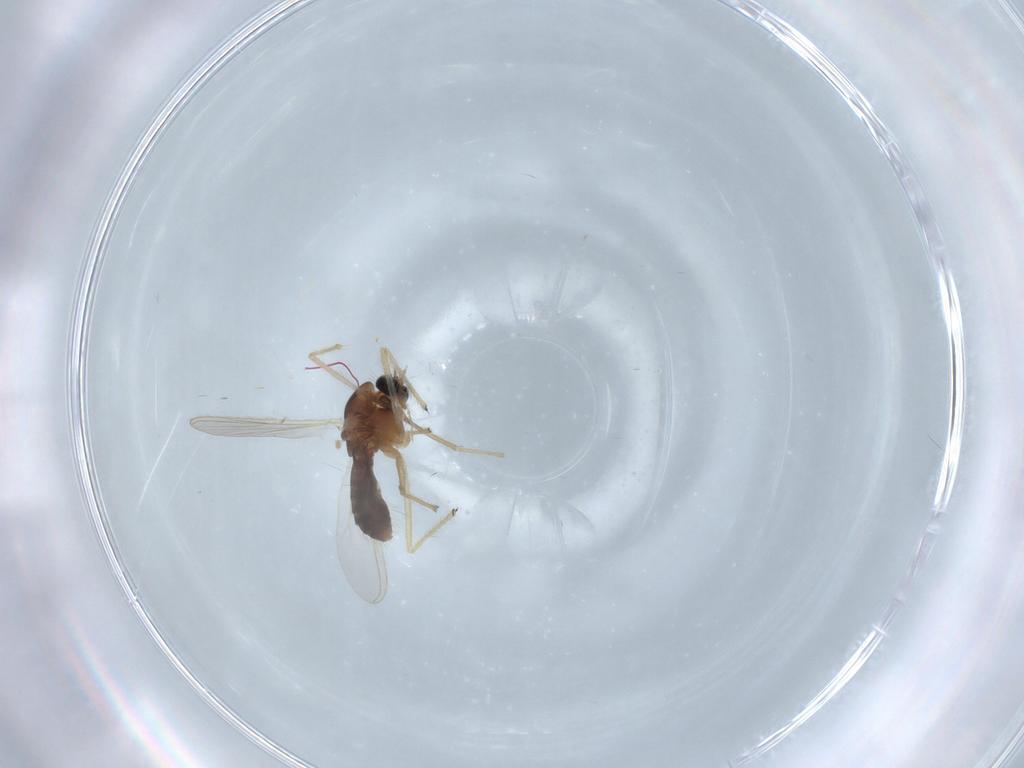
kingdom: Animalia
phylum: Arthropoda
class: Insecta
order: Diptera
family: Chironomidae
